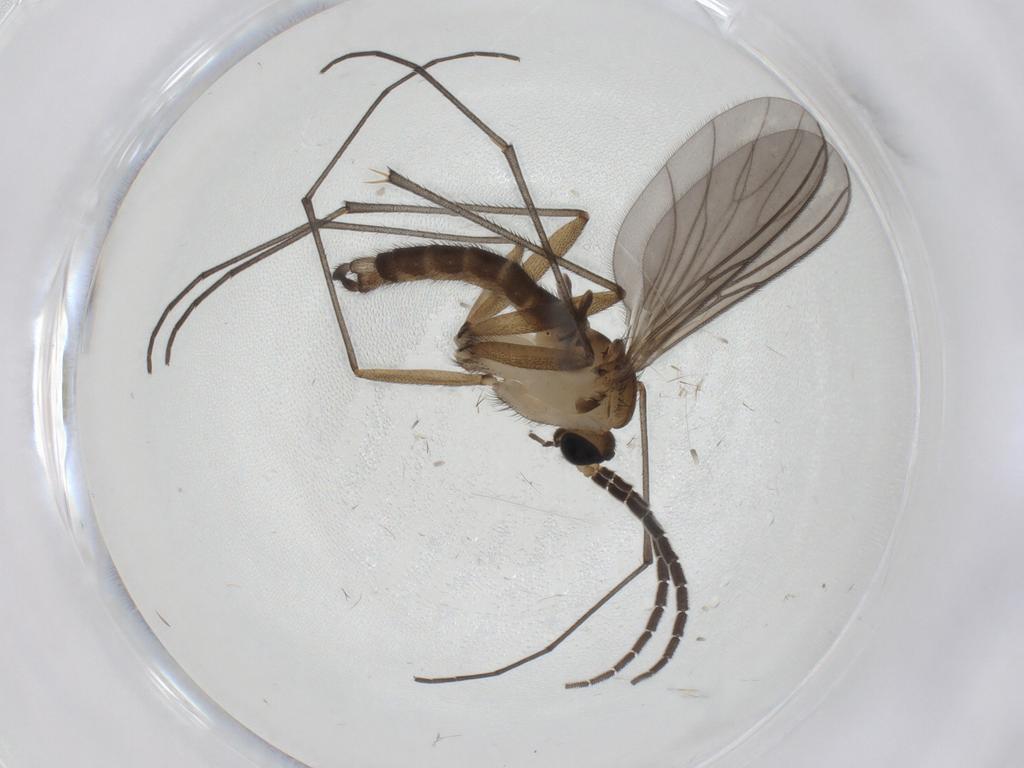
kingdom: Animalia
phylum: Arthropoda
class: Insecta
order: Diptera
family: Sciaridae
